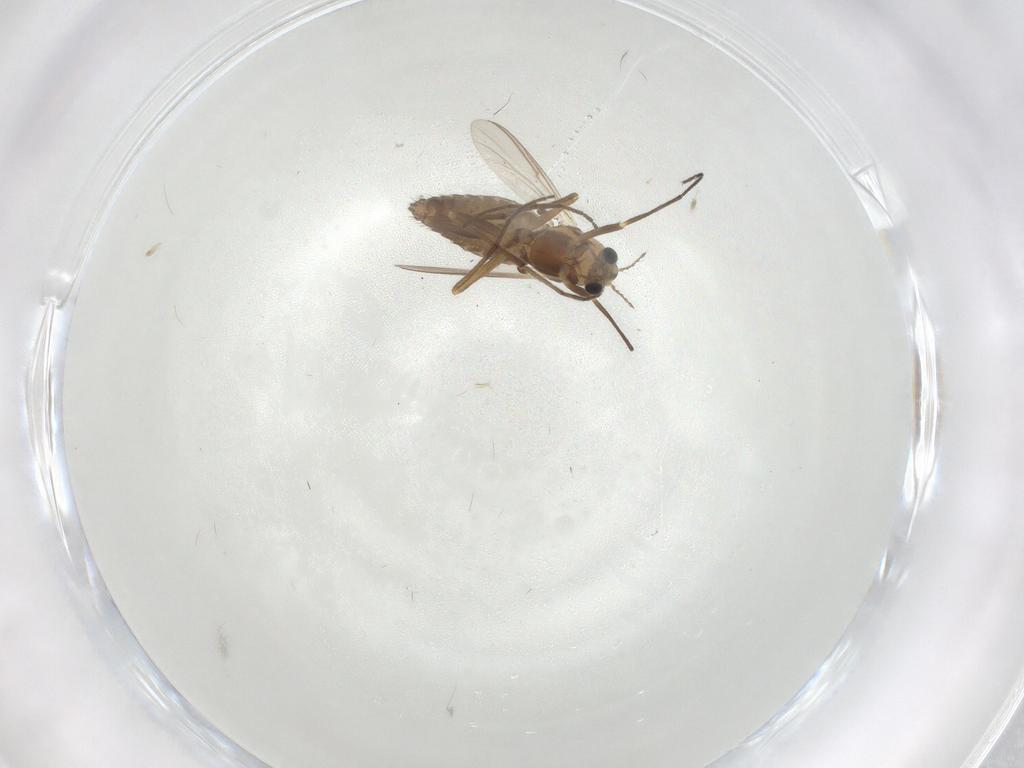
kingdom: Animalia
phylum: Arthropoda
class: Insecta
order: Diptera
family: Chironomidae
